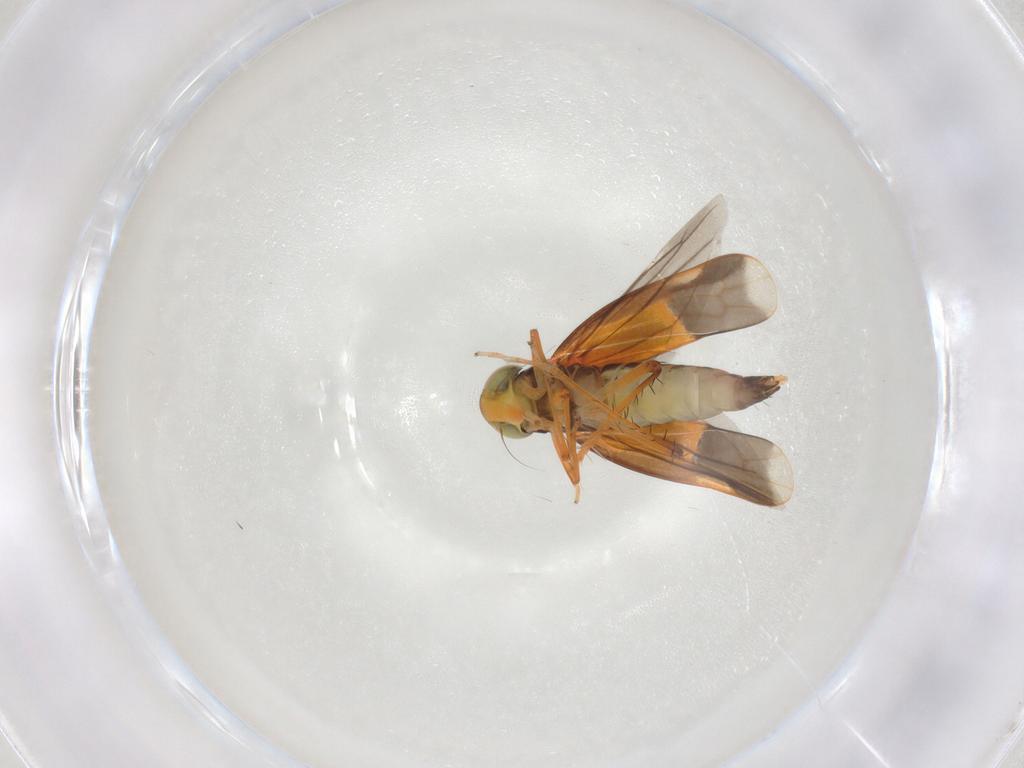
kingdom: Animalia
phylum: Arthropoda
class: Insecta
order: Hemiptera
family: Cicadellidae
